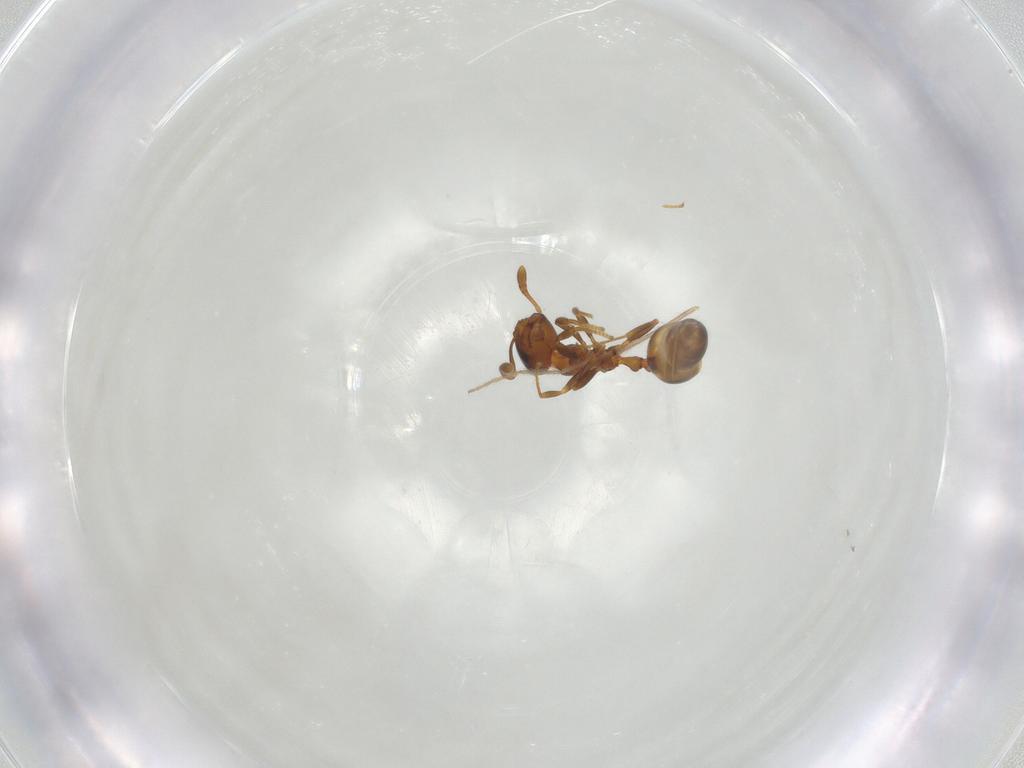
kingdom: Animalia
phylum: Arthropoda
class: Insecta
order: Hymenoptera
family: Formicidae
